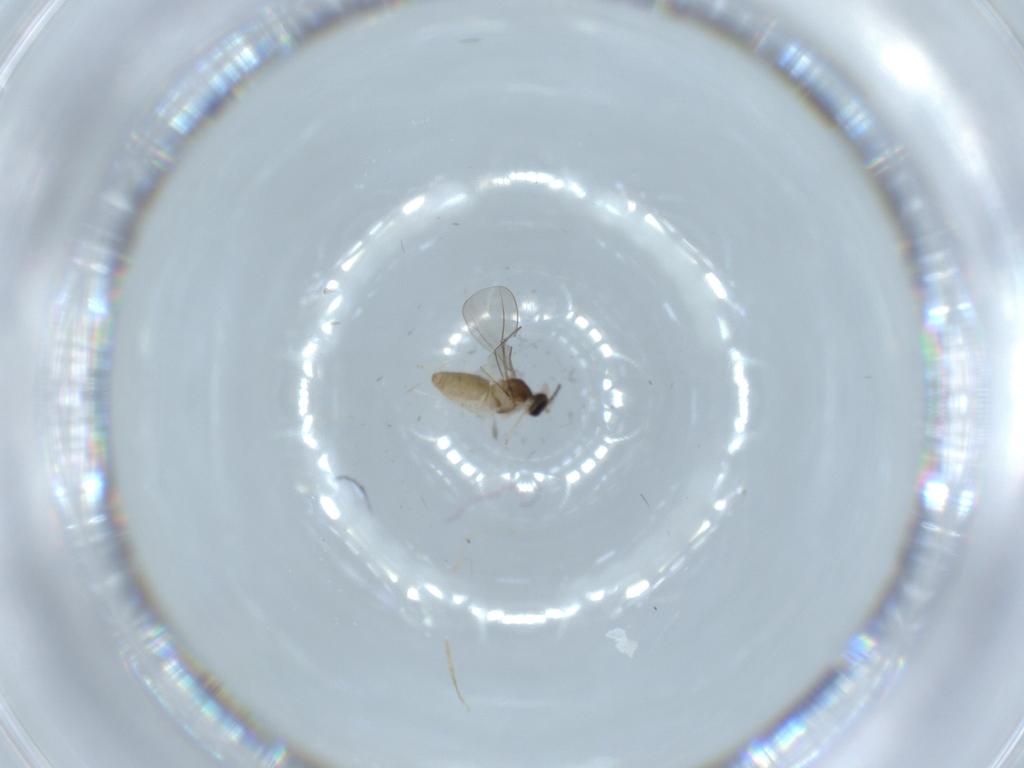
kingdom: Animalia
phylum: Arthropoda
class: Insecta
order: Diptera
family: Cecidomyiidae
